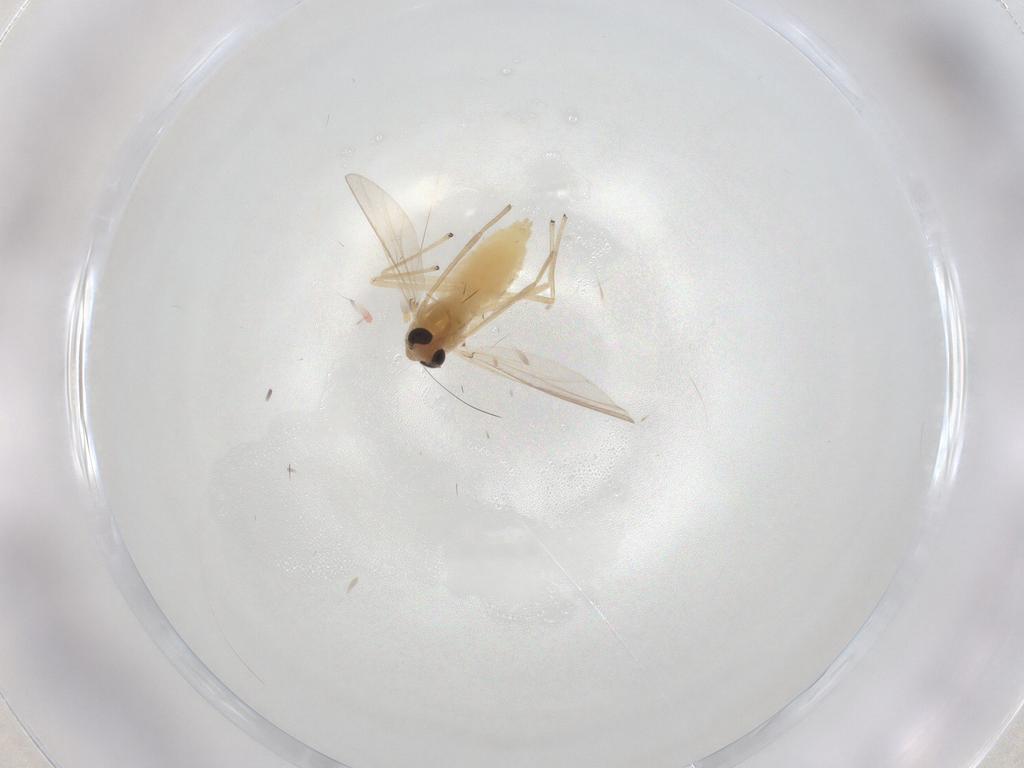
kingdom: Animalia
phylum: Arthropoda
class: Insecta
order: Diptera
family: Chironomidae
